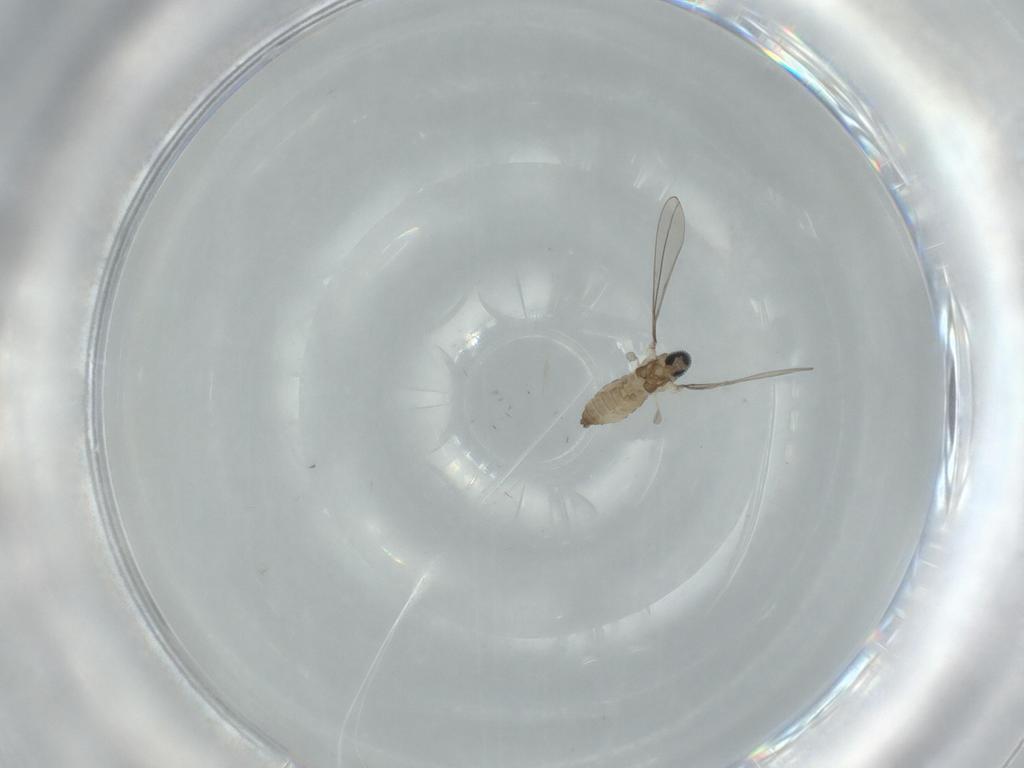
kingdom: Animalia
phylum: Arthropoda
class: Insecta
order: Diptera
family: Cecidomyiidae
